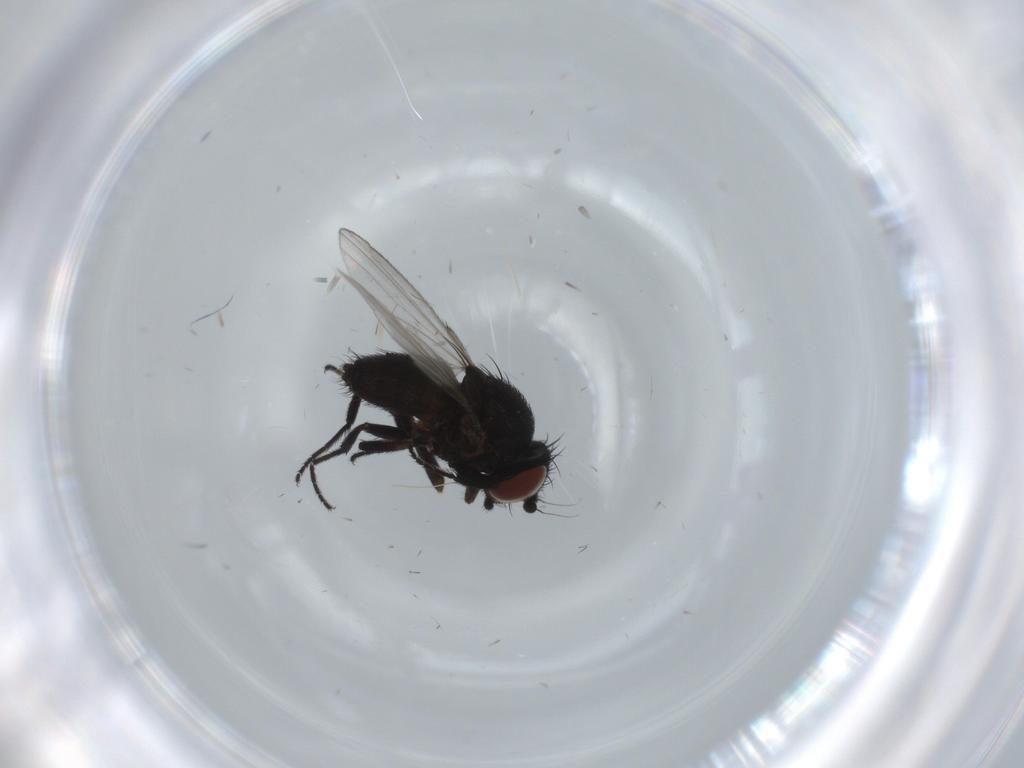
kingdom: Animalia
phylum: Arthropoda
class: Insecta
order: Diptera
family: Milichiidae
